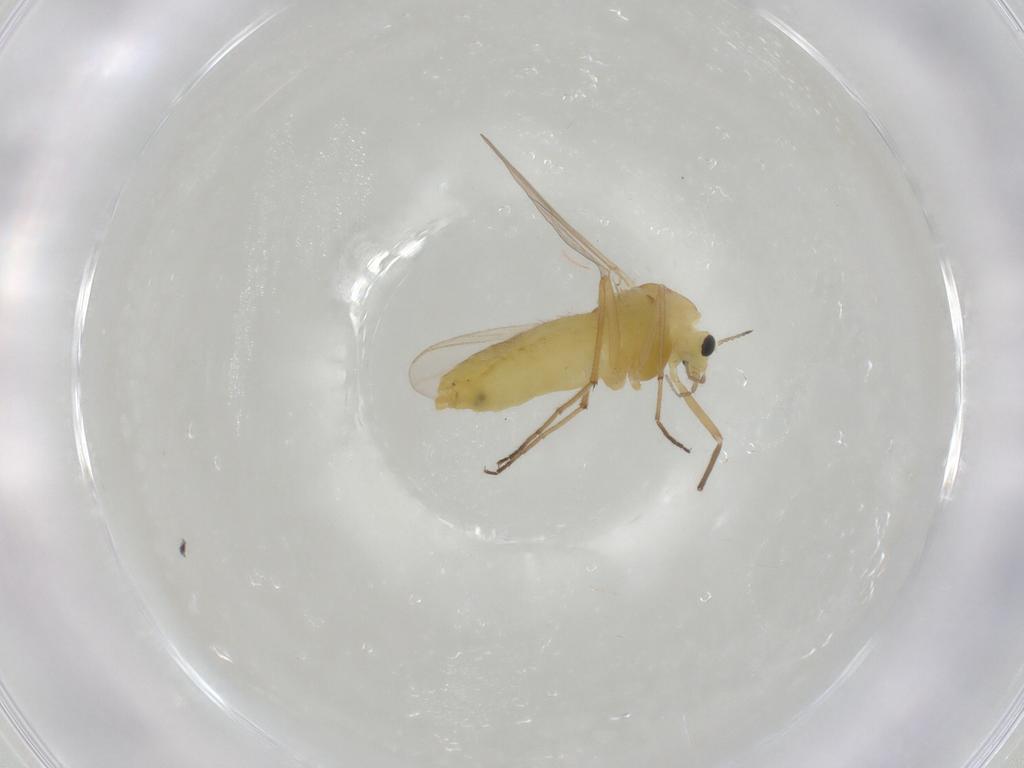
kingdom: Animalia
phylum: Arthropoda
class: Insecta
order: Diptera
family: Chironomidae
